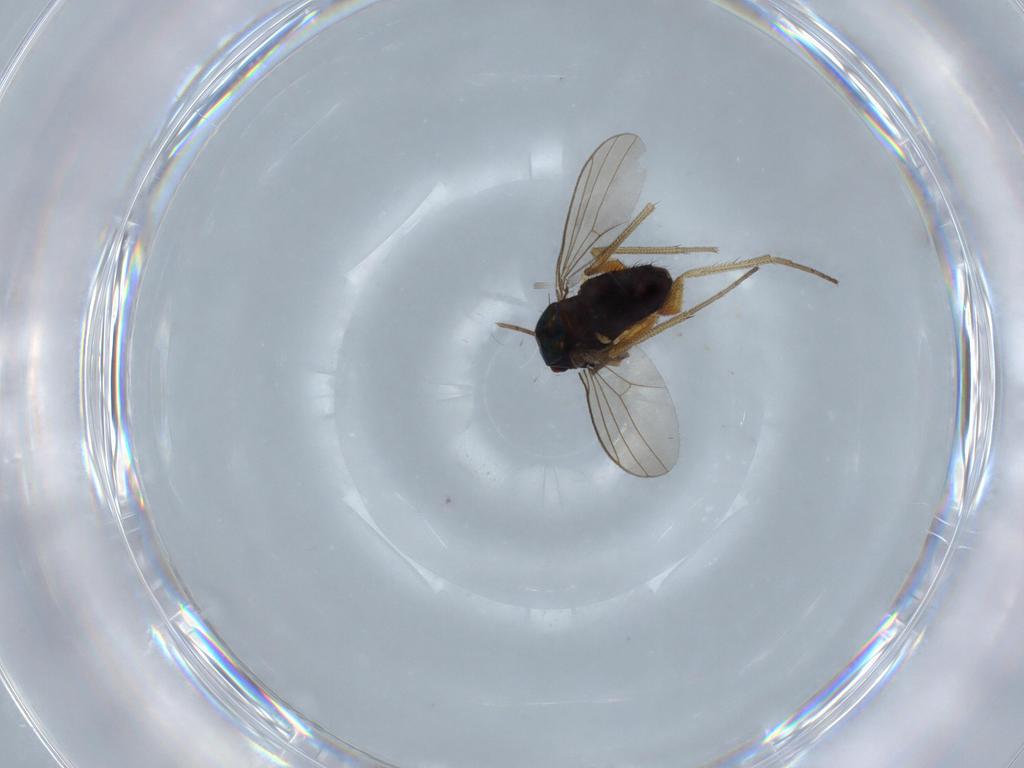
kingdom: Animalia
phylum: Arthropoda
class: Insecta
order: Diptera
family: Dolichopodidae
